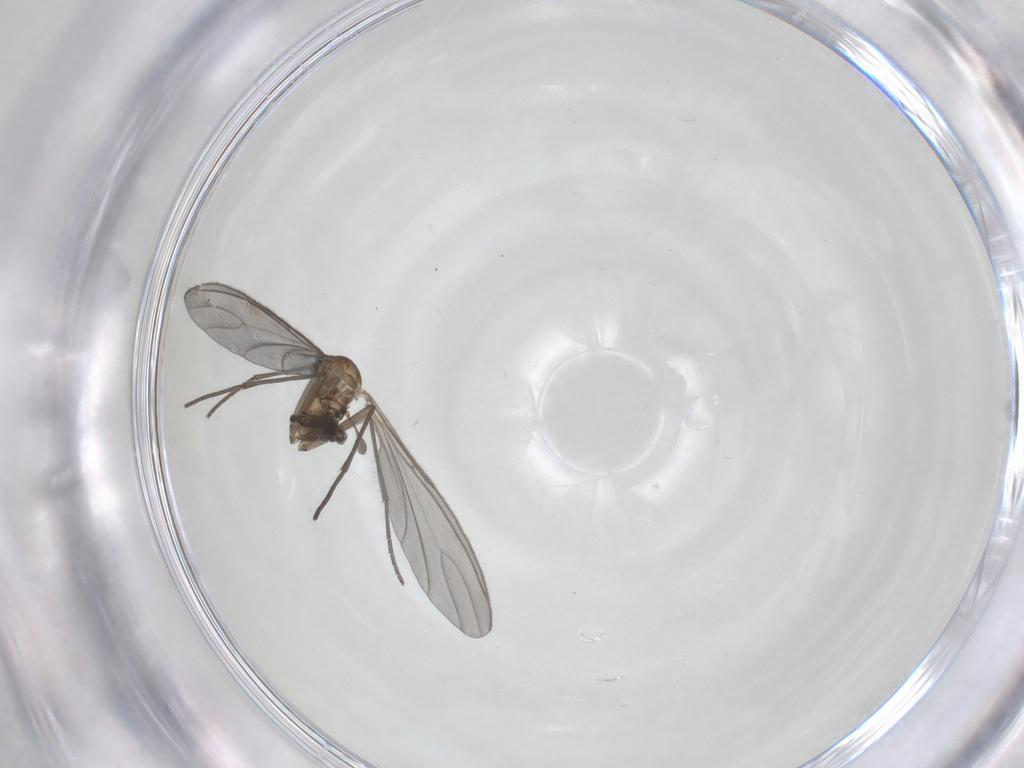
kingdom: Animalia
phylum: Arthropoda
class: Insecta
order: Diptera
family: Sciaridae
